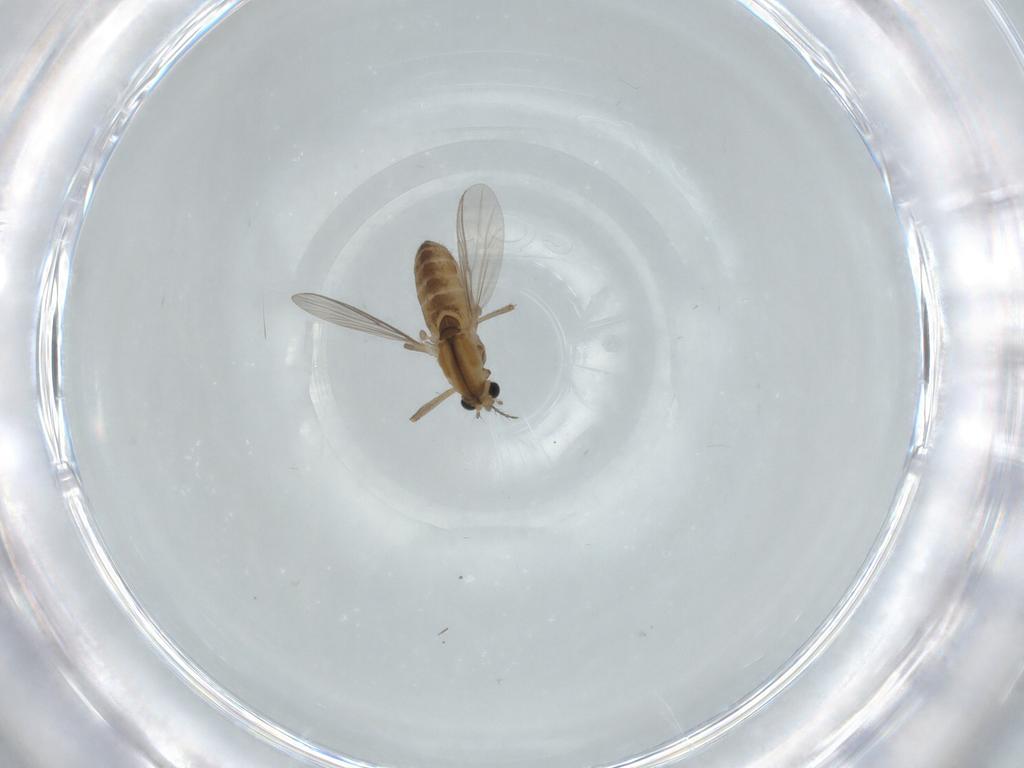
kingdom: Animalia
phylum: Arthropoda
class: Insecta
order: Diptera
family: Chironomidae
